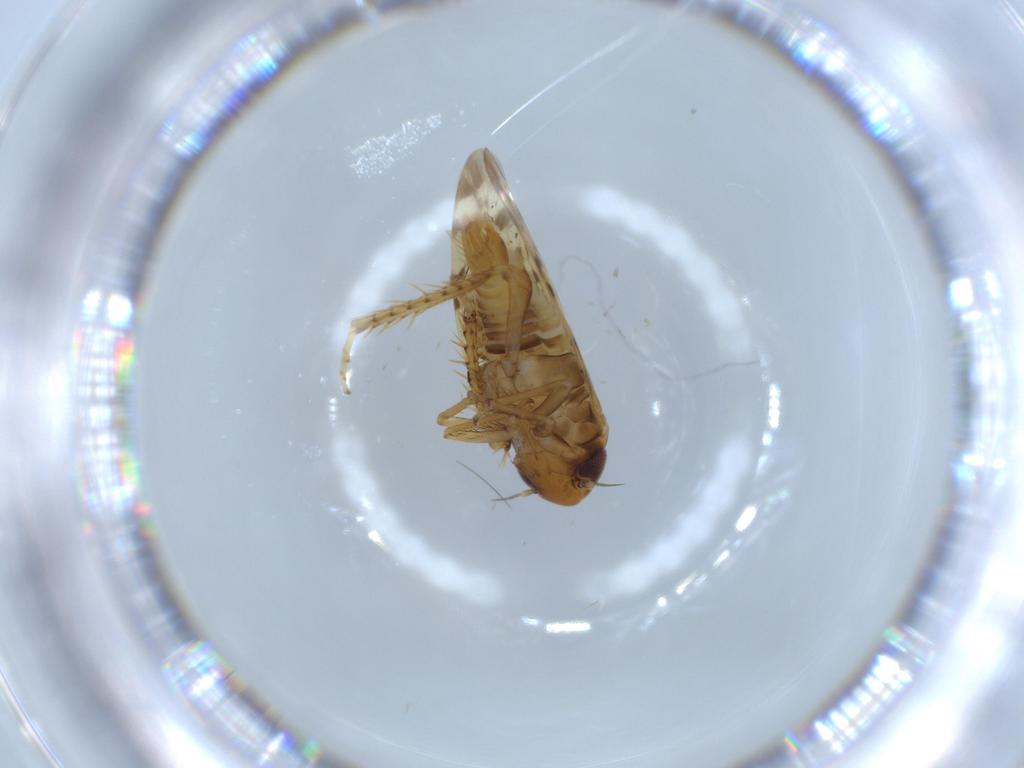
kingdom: Animalia
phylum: Arthropoda
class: Insecta
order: Hemiptera
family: Cicadellidae
